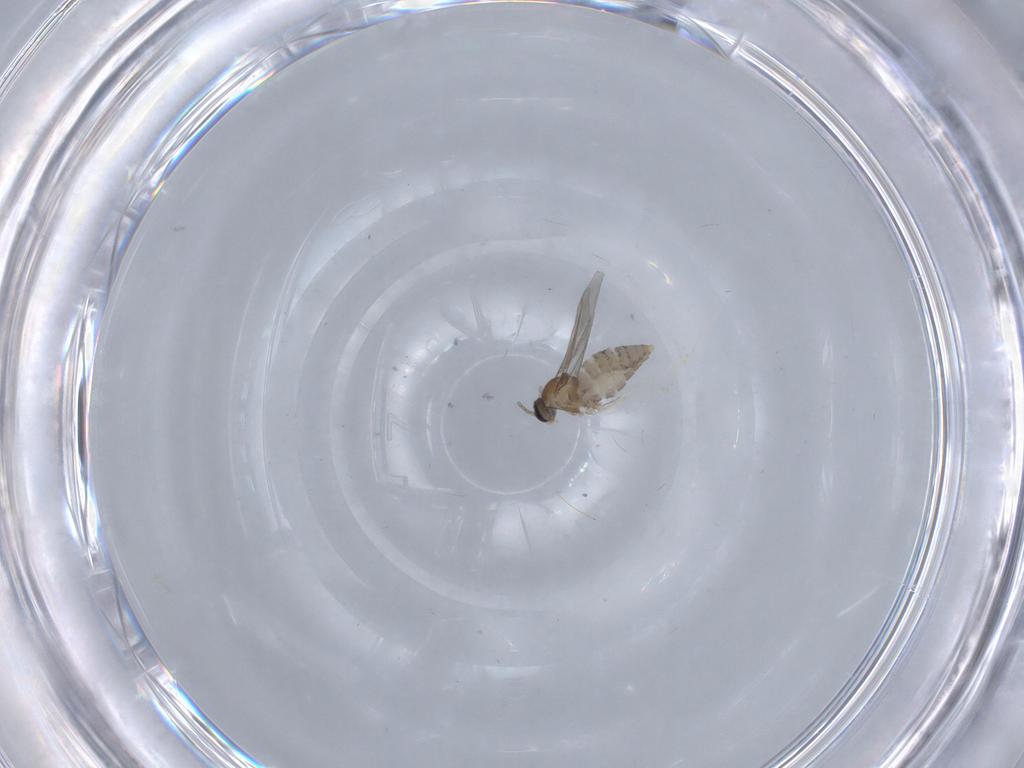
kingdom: Animalia
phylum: Arthropoda
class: Insecta
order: Diptera
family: Cecidomyiidae
